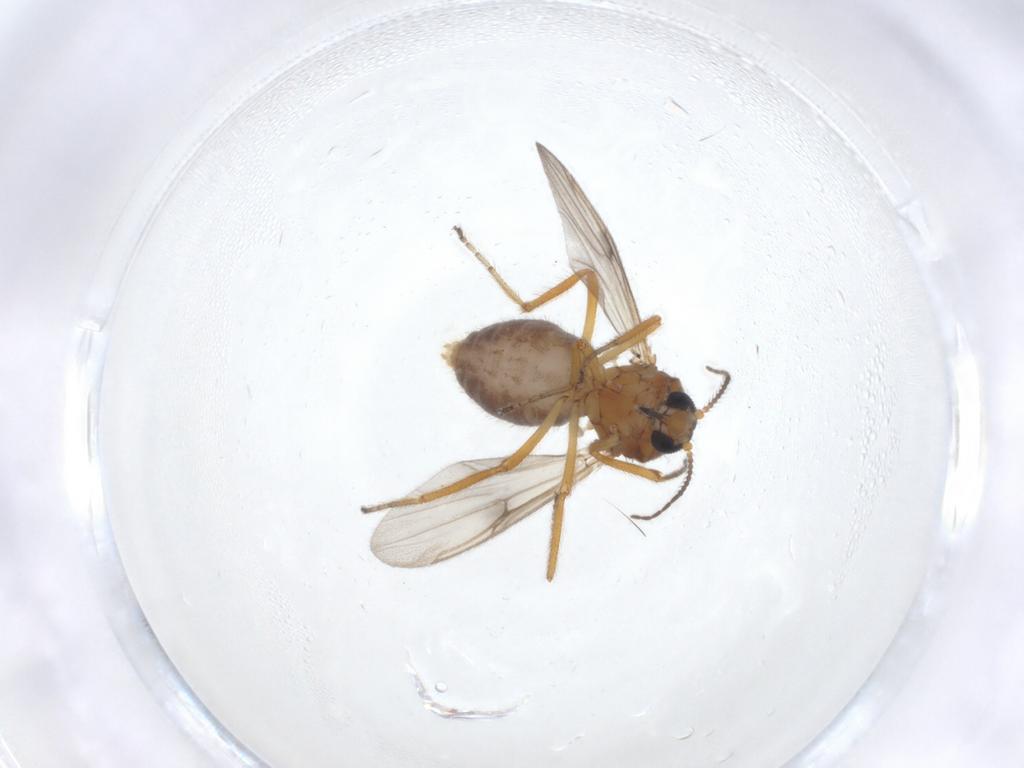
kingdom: Animalia
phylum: Arthropoda
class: Insecta
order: Diptera
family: Ceratopogonidae
